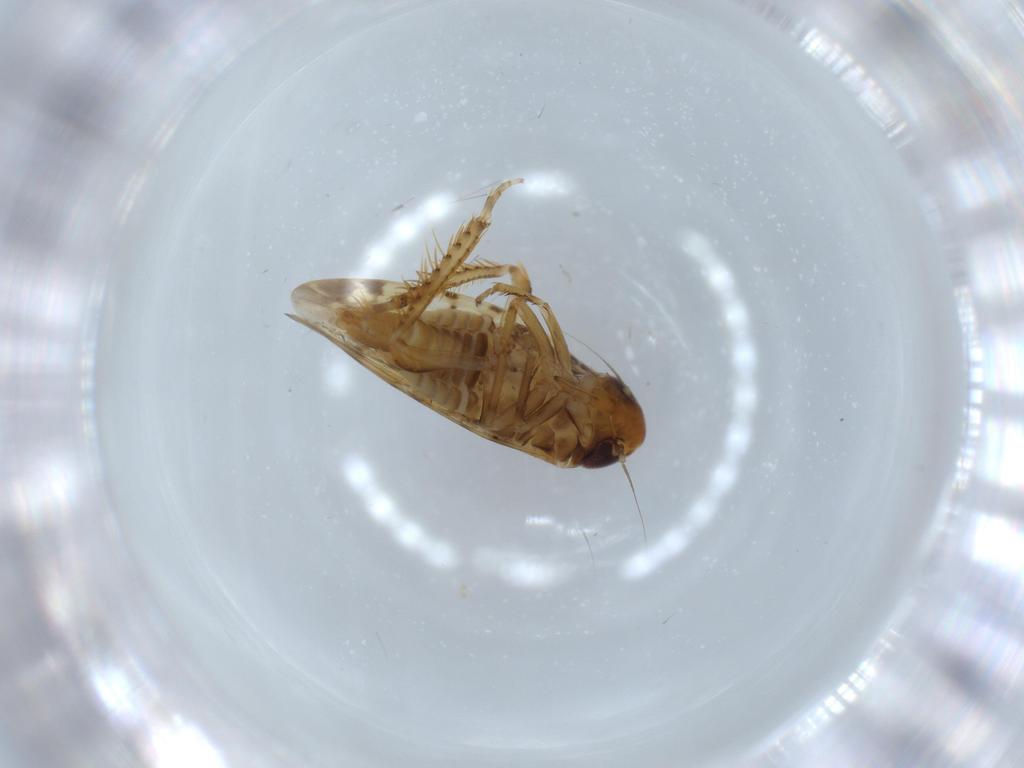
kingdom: Animalia
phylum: Arthropoda
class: Insecta
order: Hemiptera
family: Cicadellidae
